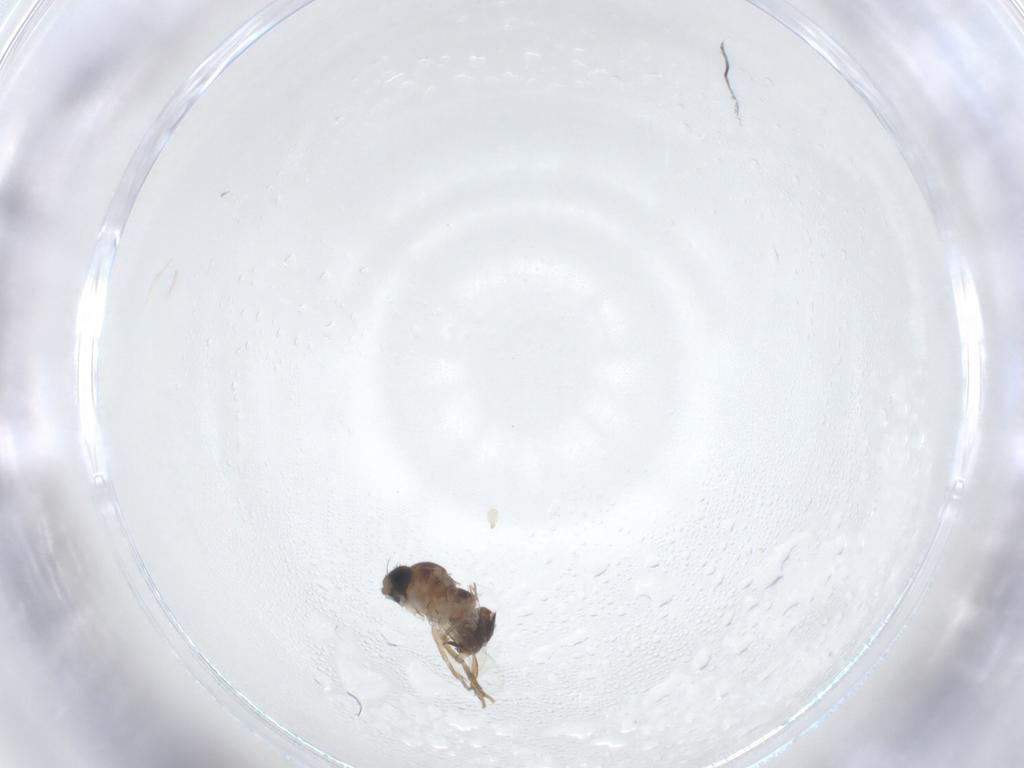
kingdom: Animalia
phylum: Arthropoda
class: Insecta
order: Diptera
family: Phoridae
